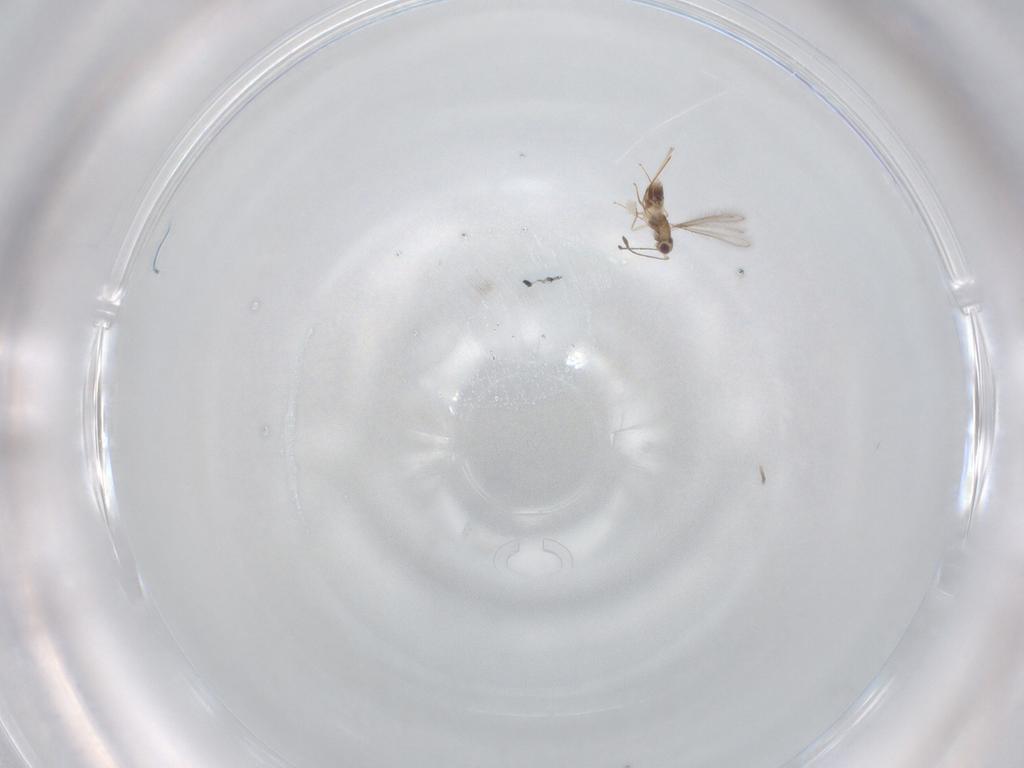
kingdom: Animalia
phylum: Arthropoda
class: Insecta
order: Hymenoptera
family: Mymaridae
